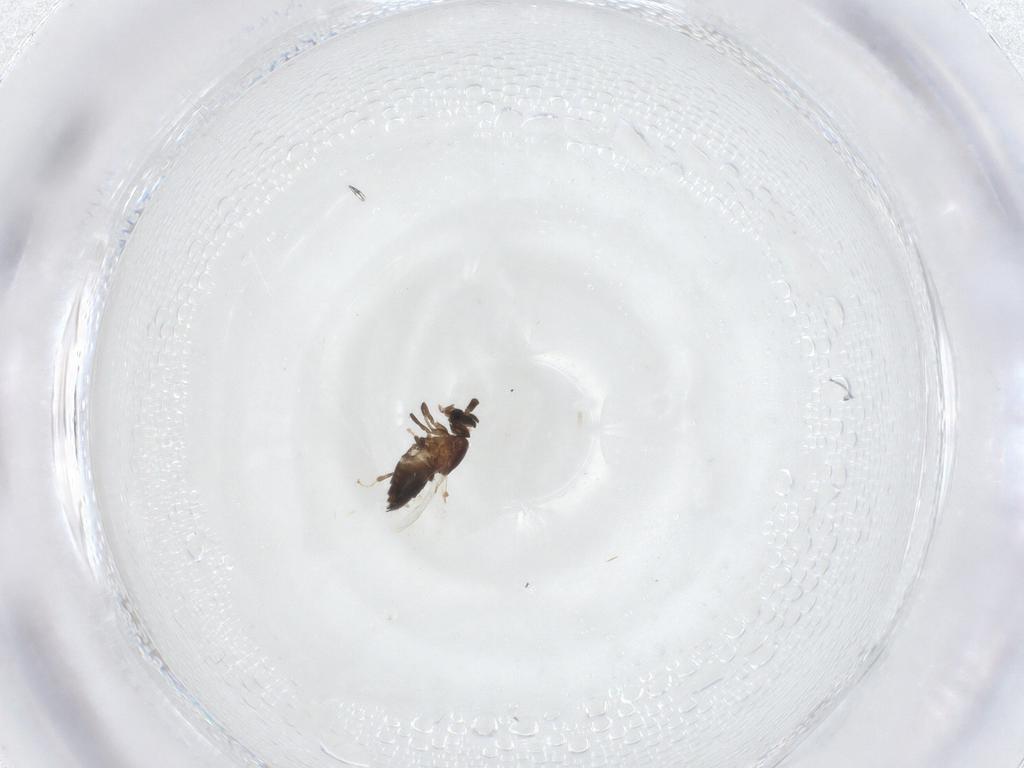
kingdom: Animalia
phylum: Arthropoda
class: Insecta
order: Diptera
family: Scatopsidae
